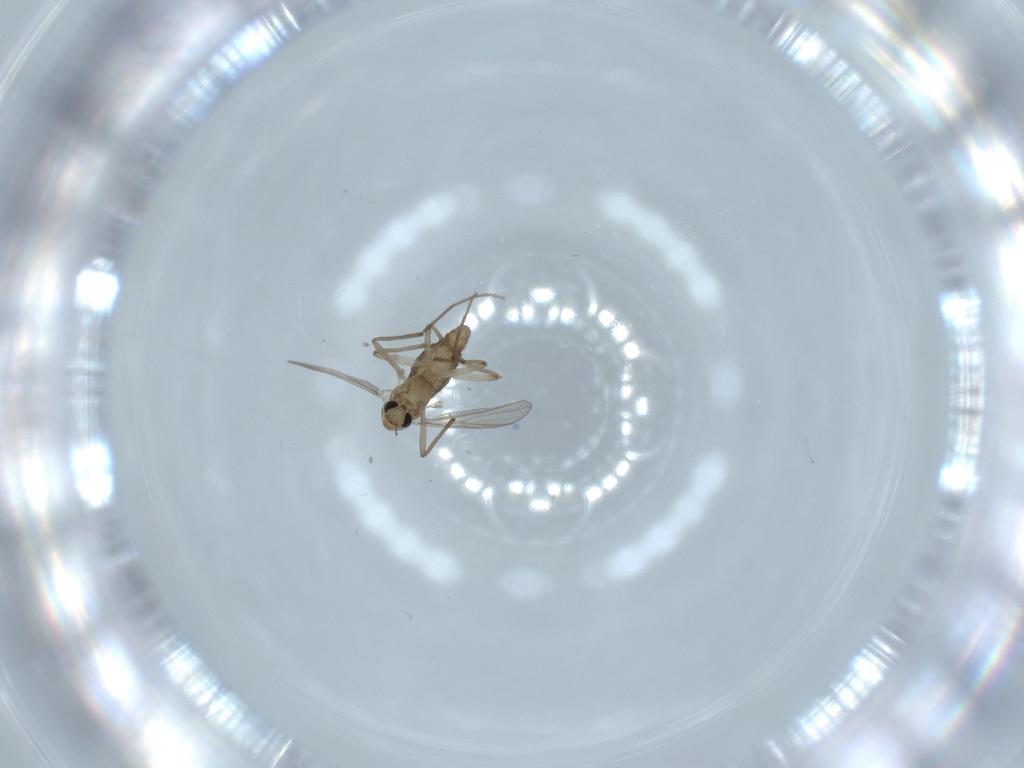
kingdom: Animalia
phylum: Arthropoda
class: Insecta
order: Diptera
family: Chironomidae
